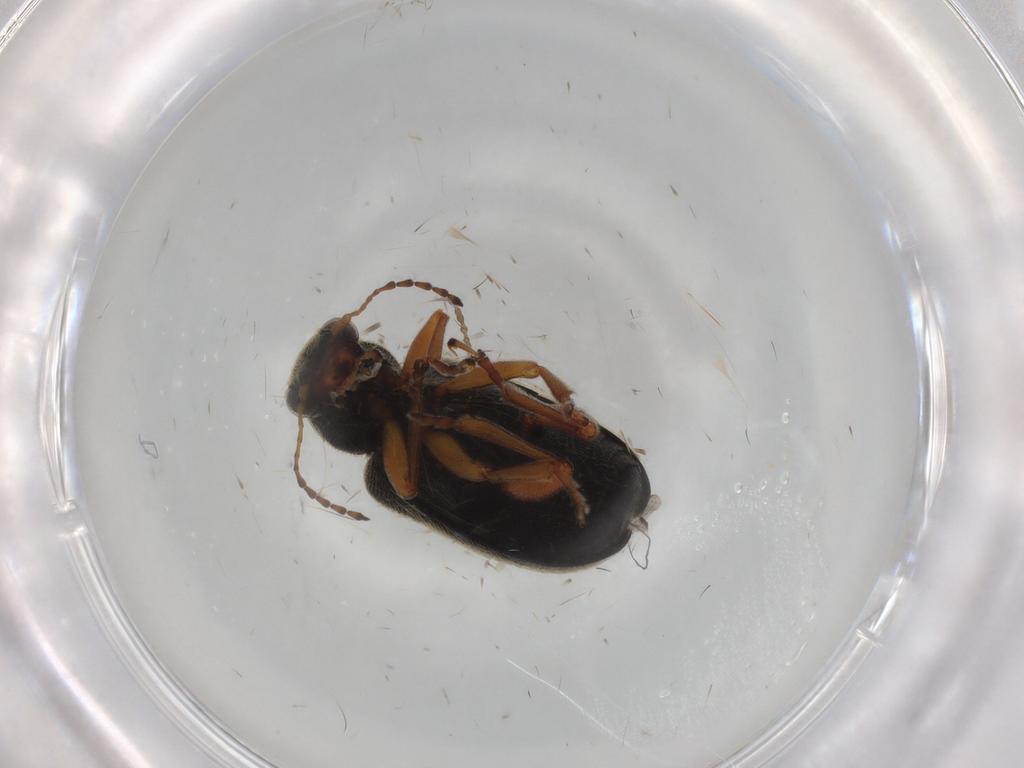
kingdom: Animalia
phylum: Arthropoda
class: Insecta
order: Coleoptera
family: Chrysomelidae
